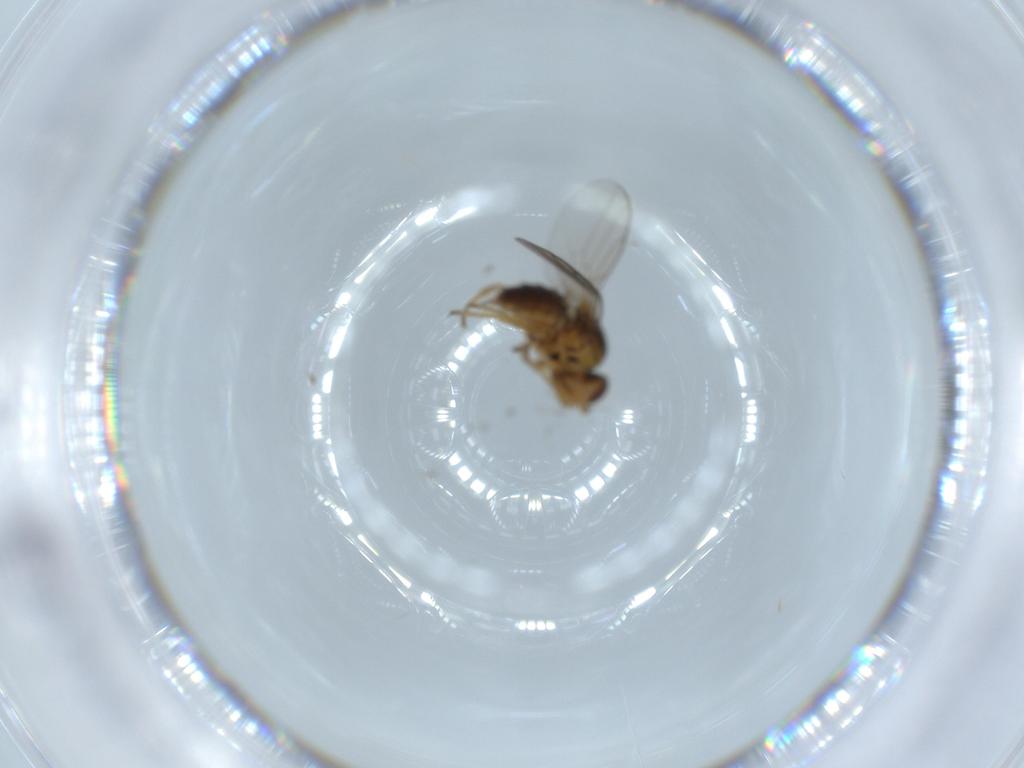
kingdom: Animalia
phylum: Arthropoda
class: Insecta
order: Diptera
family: Chloropidae
